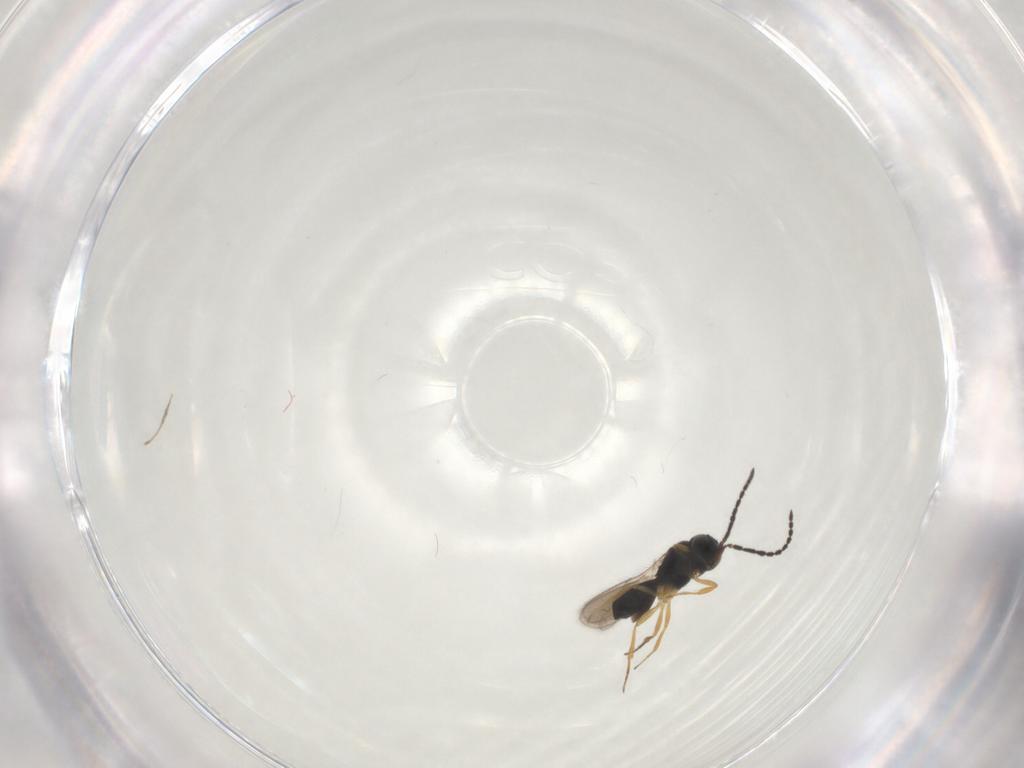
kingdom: Animalia
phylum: Arthropoda
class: Insecta
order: Hymenoptera
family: Scelionidae
